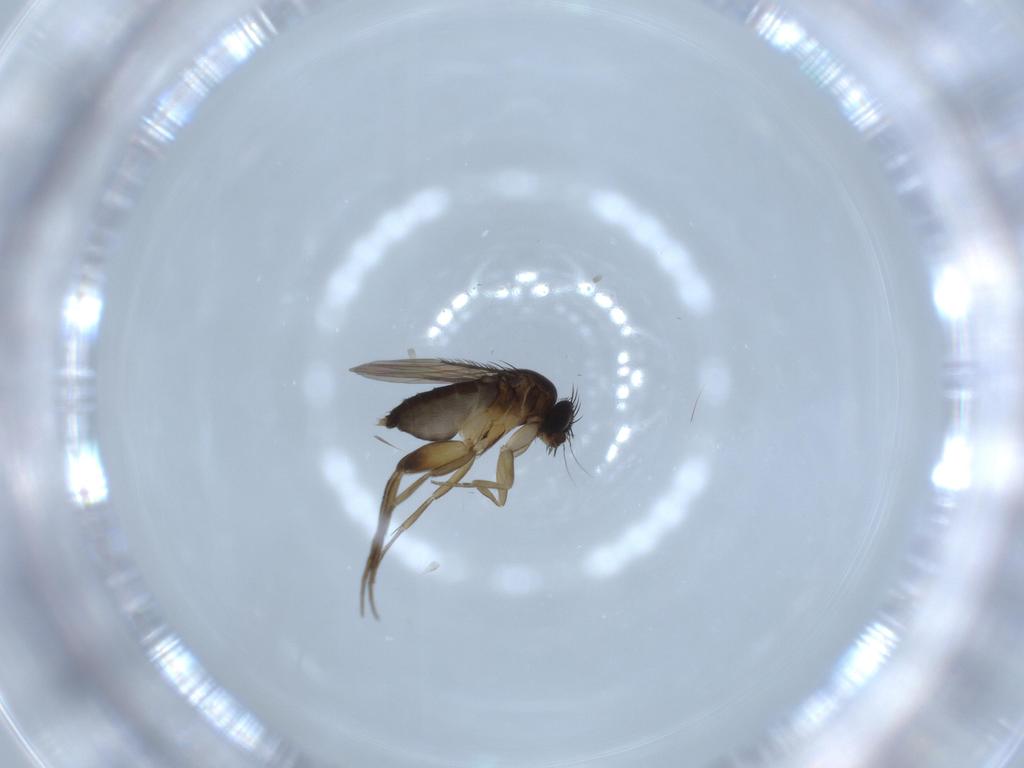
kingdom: Animalia
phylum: Arthropoda
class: Insecta
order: Diptera
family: Phoridae
